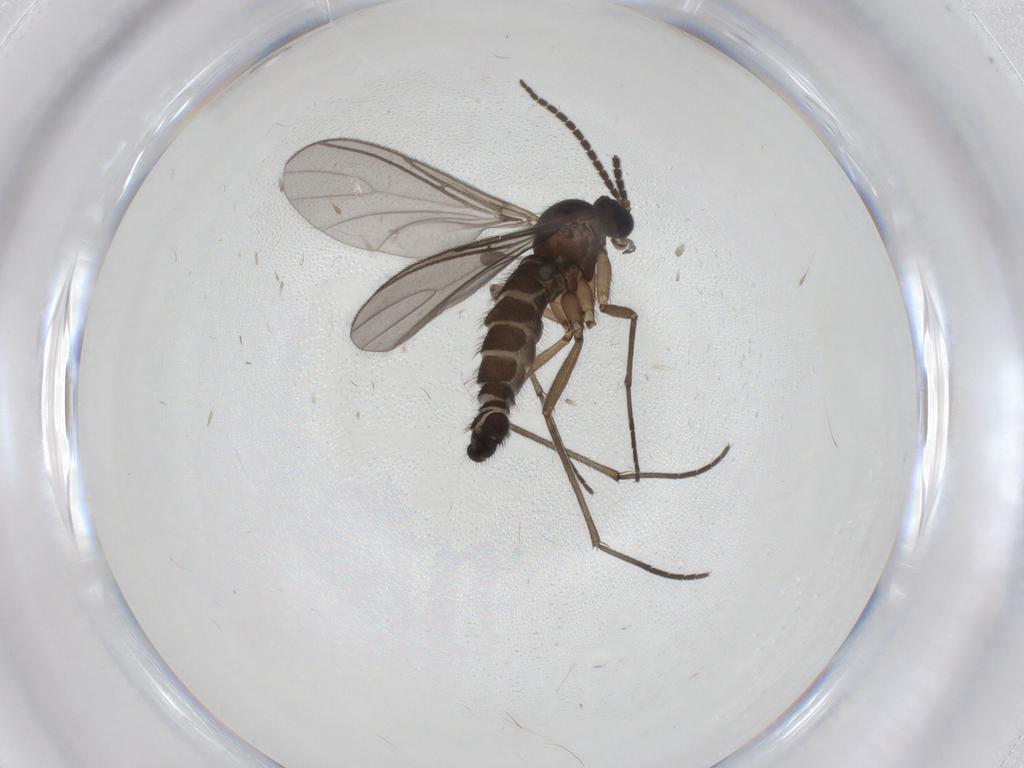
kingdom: Animalia
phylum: Arthropoda
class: Insecta
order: Diptera
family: Sciaridae
